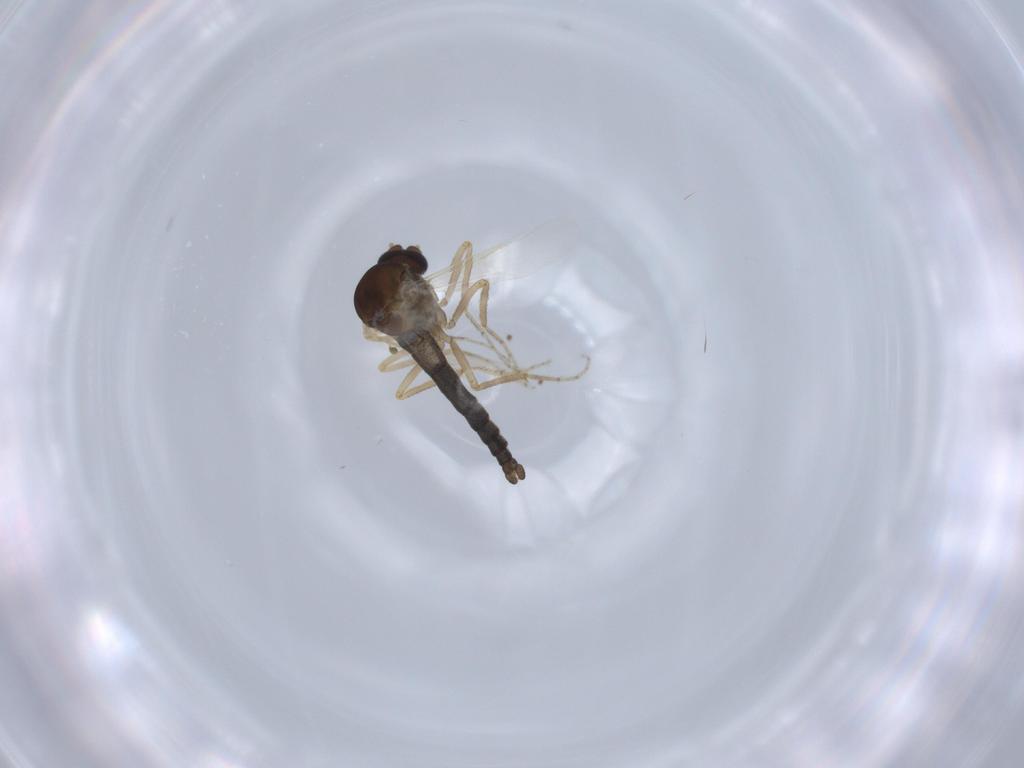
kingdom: Animalia
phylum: Arthropoda
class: Insecta
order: Diptera
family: Ceratopogonidae
